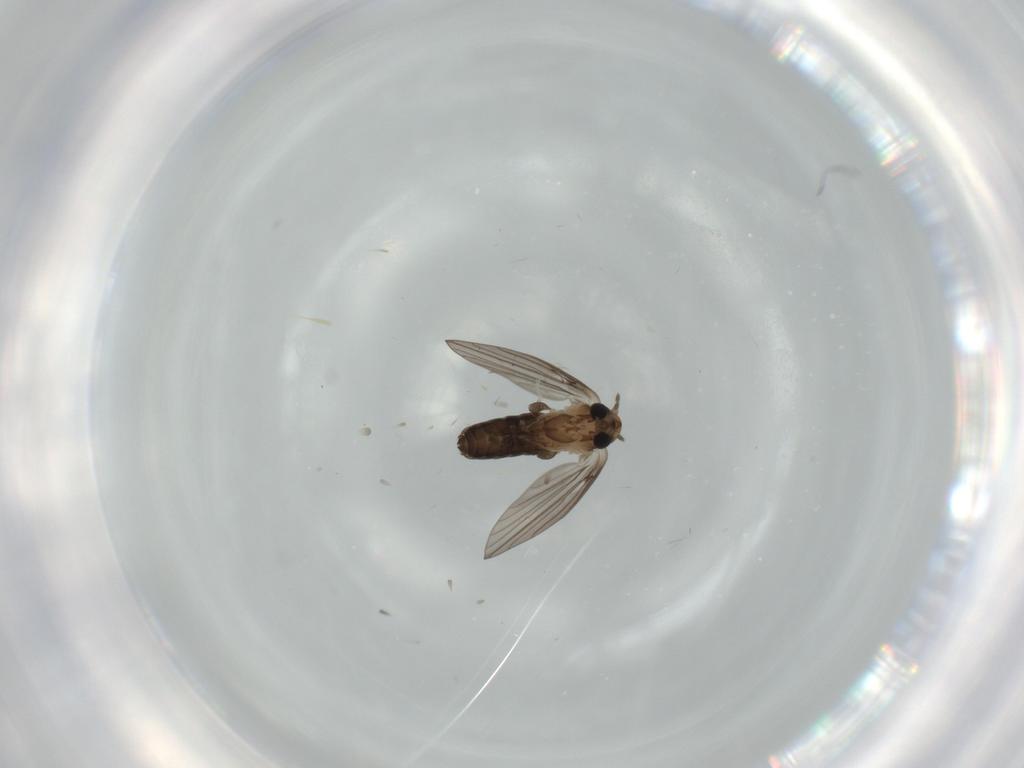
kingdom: Animalia
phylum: Arthropoda
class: Insecta
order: Diptera
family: Psychodidae
